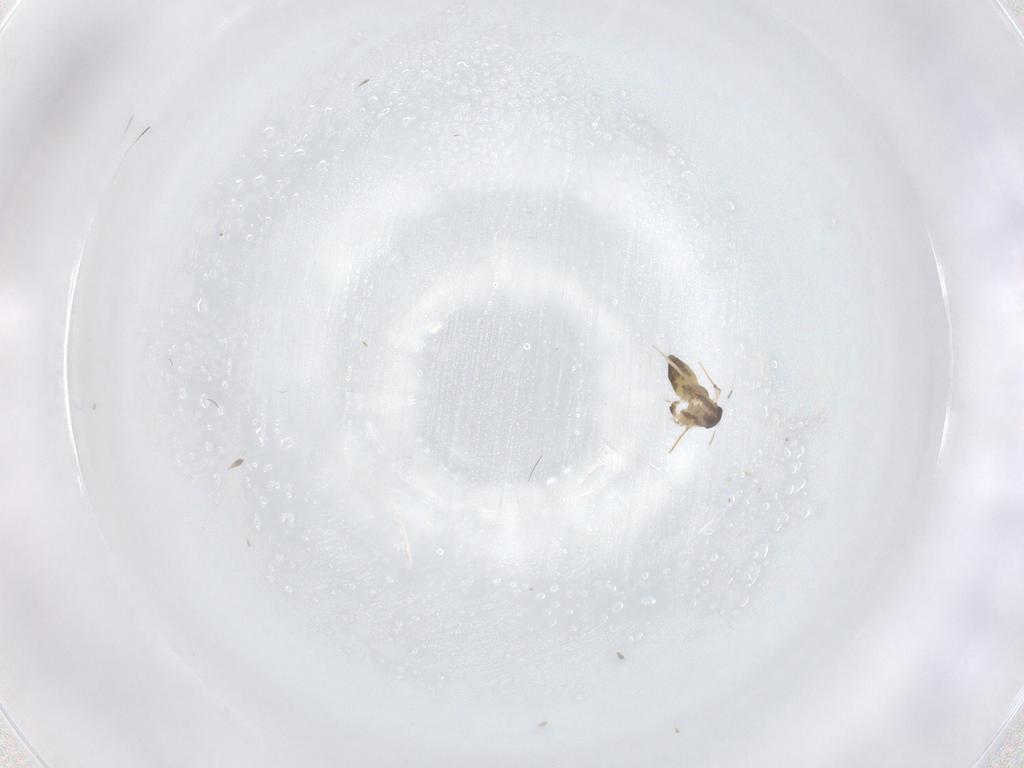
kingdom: Animalia
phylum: Arthropoda
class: Insecta
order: Diptera
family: Chironomidae
